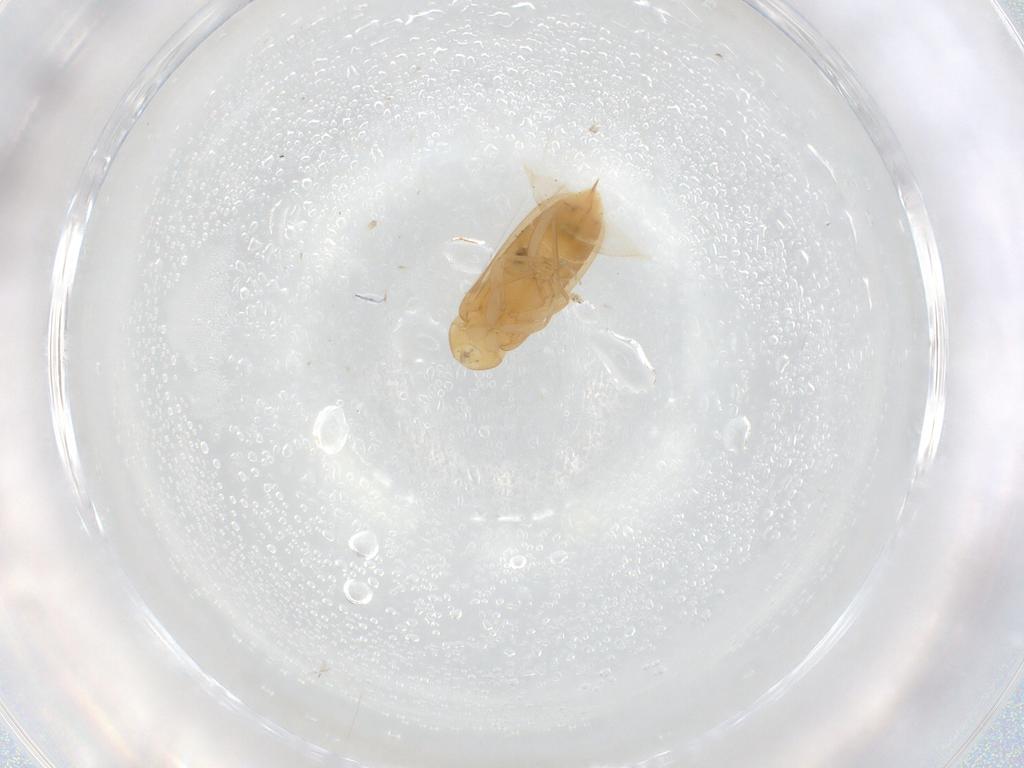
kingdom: Animalia
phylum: Arthropoda
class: Insecta
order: Coleoptera
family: Scraptiidae
